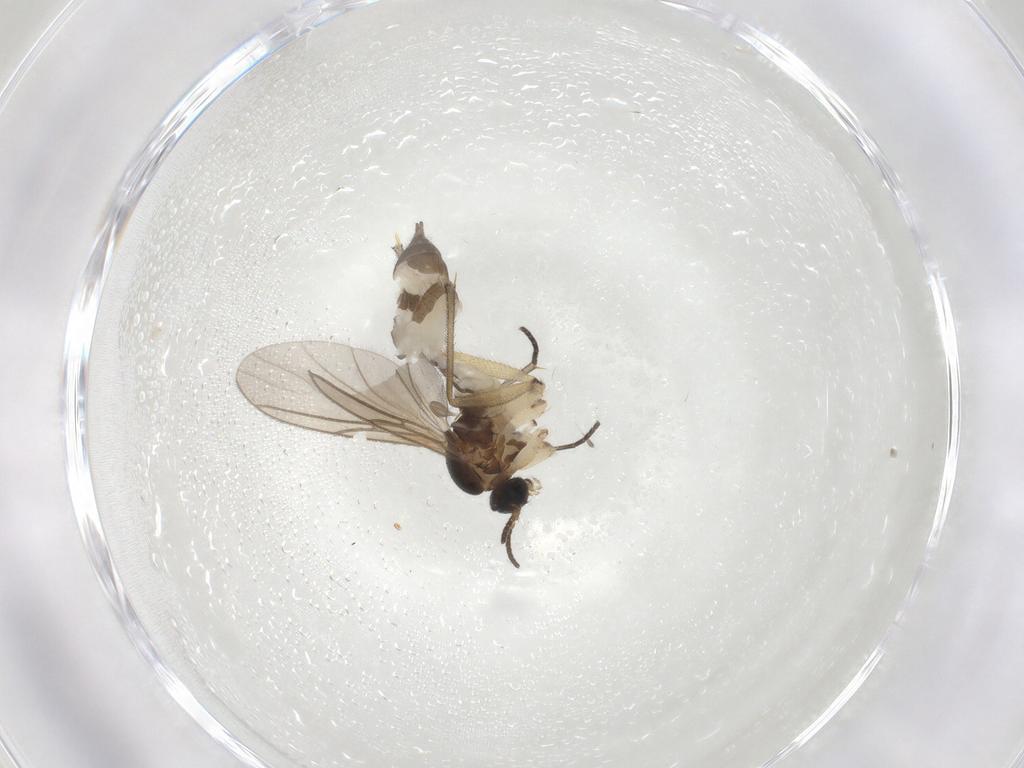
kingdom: Animalia
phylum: Arthropoda
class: Insecta
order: Diptera
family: Sciaridae
